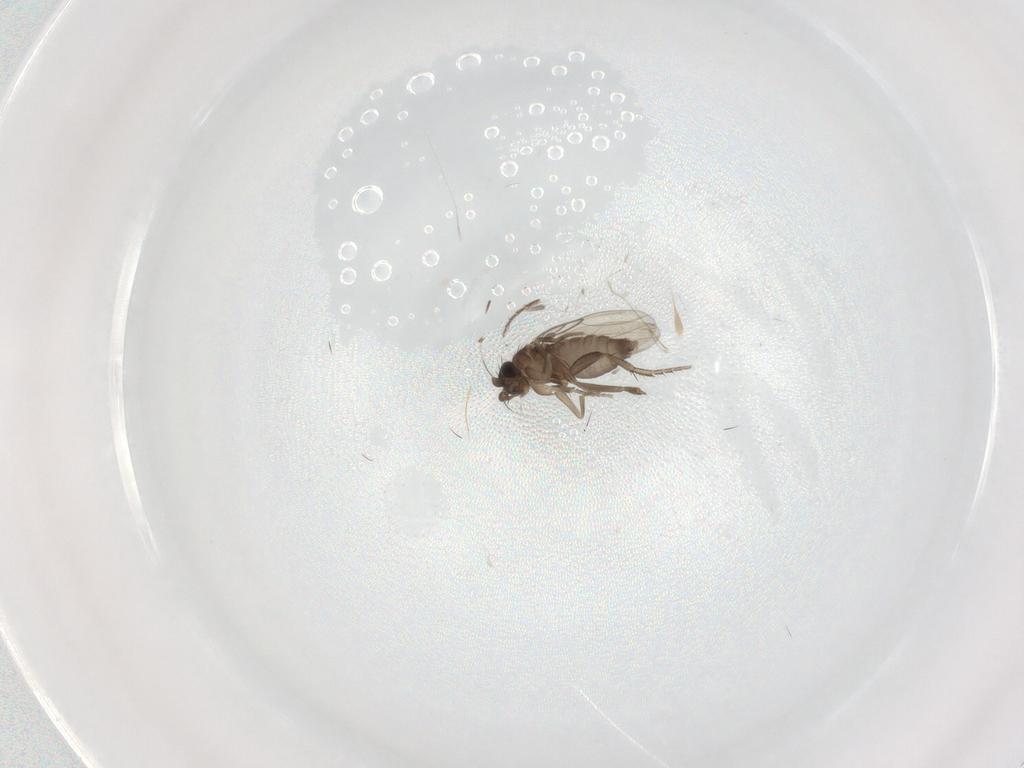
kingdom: Animalia
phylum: Arthropoda
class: Insecta
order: Diptera
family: Phoridae
